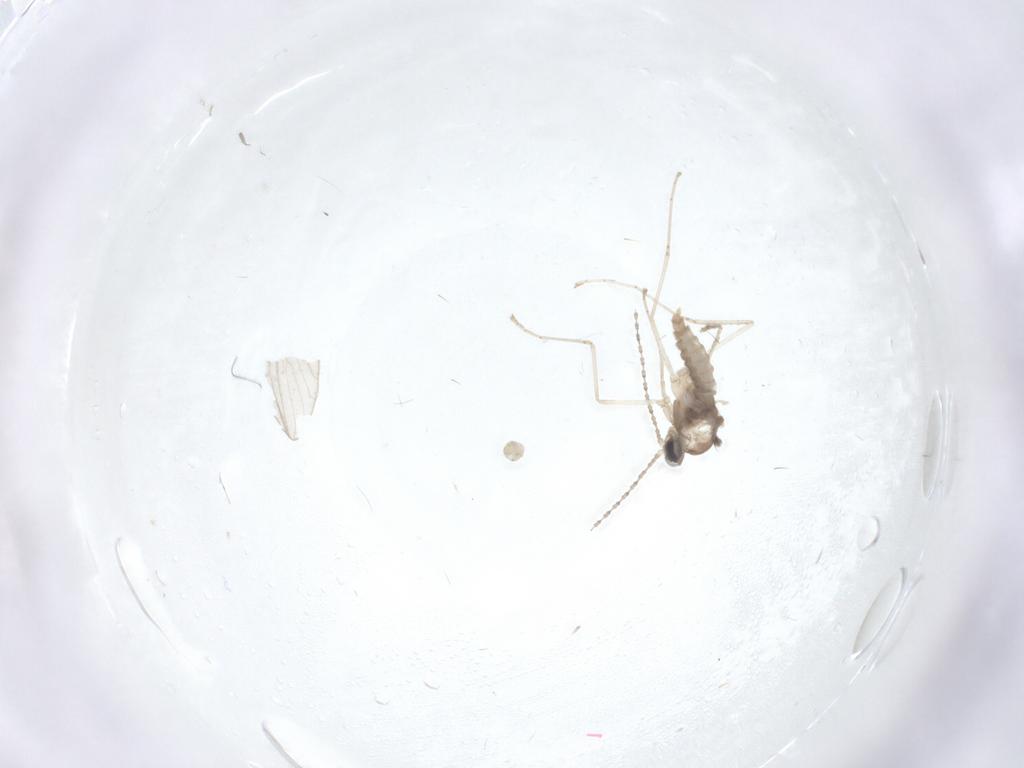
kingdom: Animalia
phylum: Arthropoda
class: Insecta
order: Diptera
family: Cecidomyiidae
